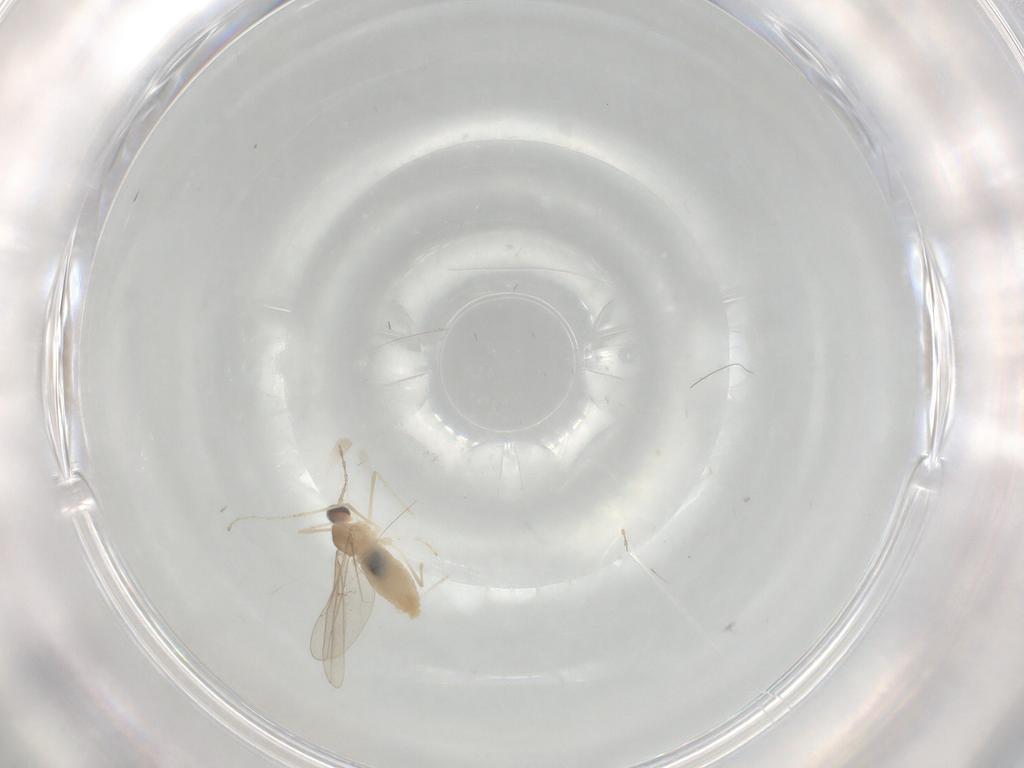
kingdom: Animalia
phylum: Arthropoda
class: Insecta
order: Diptera
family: Cecidomyiidae
